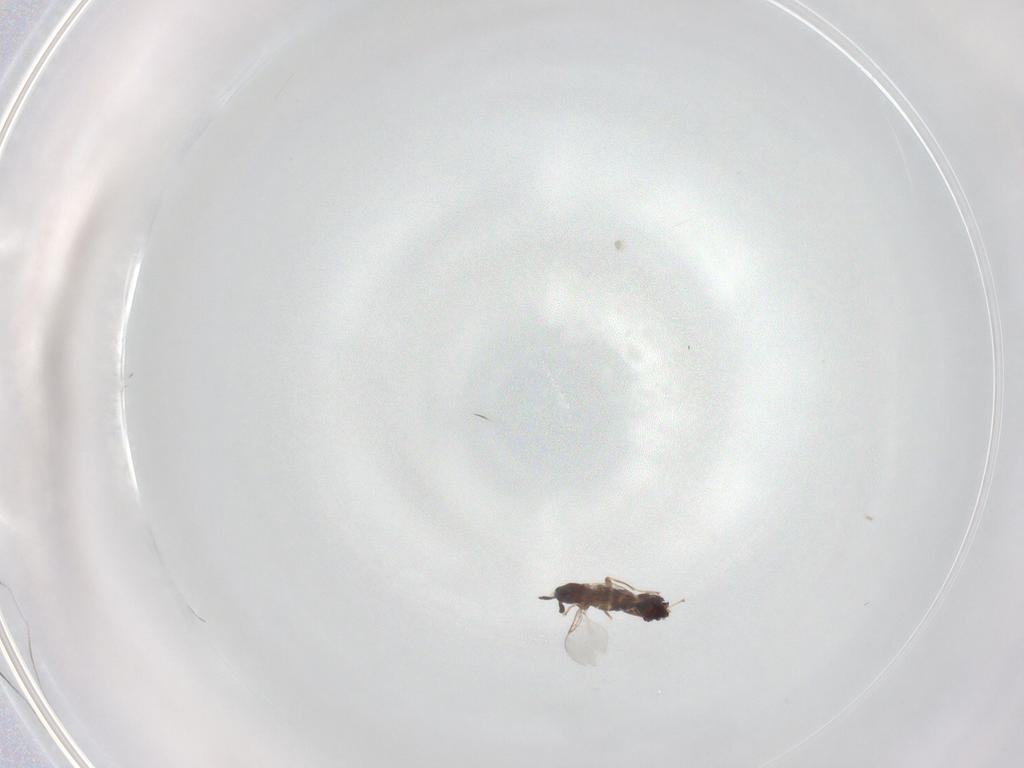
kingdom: Animalia
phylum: Arthropoda
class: Insecta
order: Diptera
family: Scatopsidae
